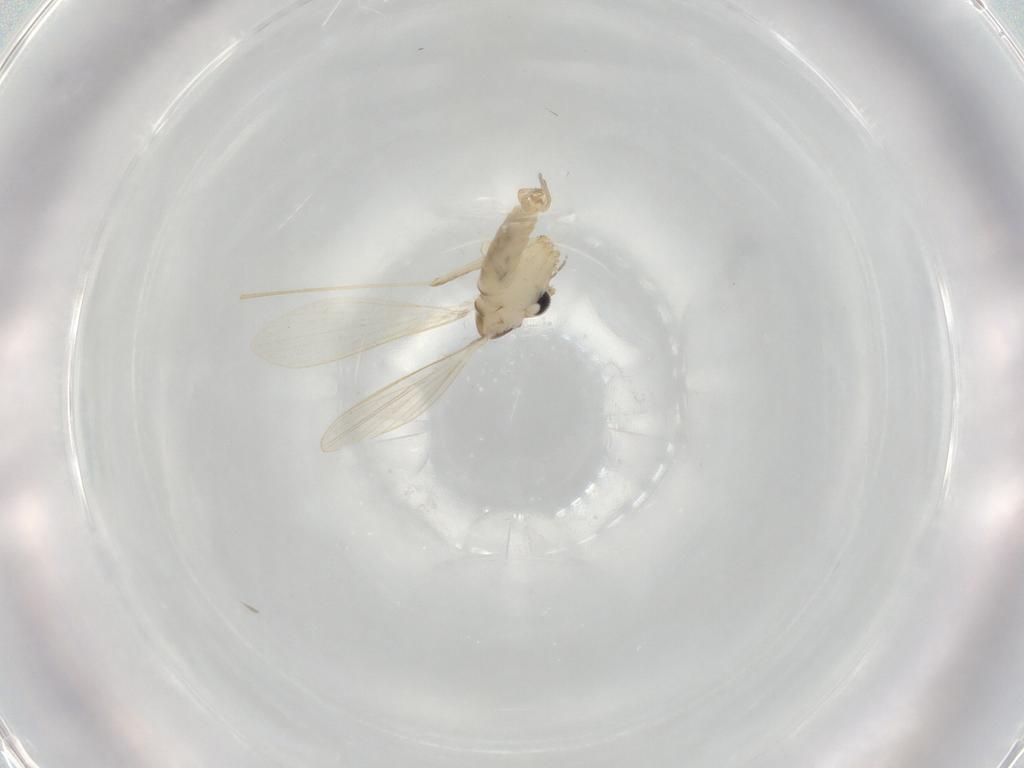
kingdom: Animalia
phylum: Arthropoda
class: Insecta
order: Diptera
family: Psychodidae
